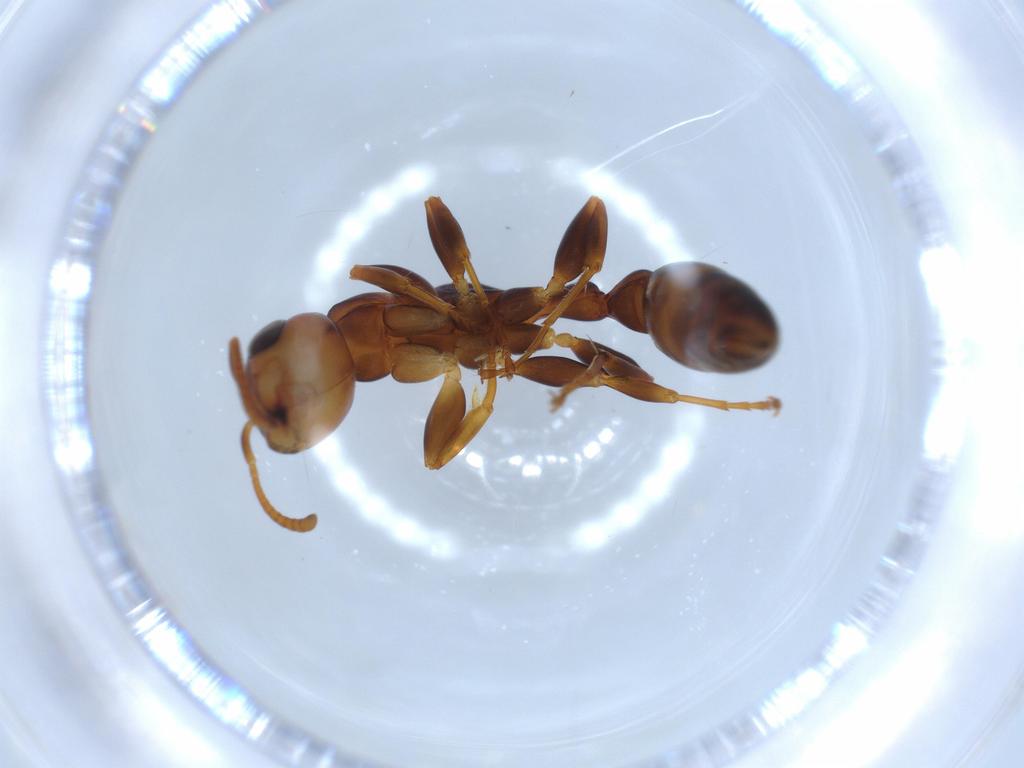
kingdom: Animalia
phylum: Arthropoda
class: Insecta
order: Hymenoptera
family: Formicidae
